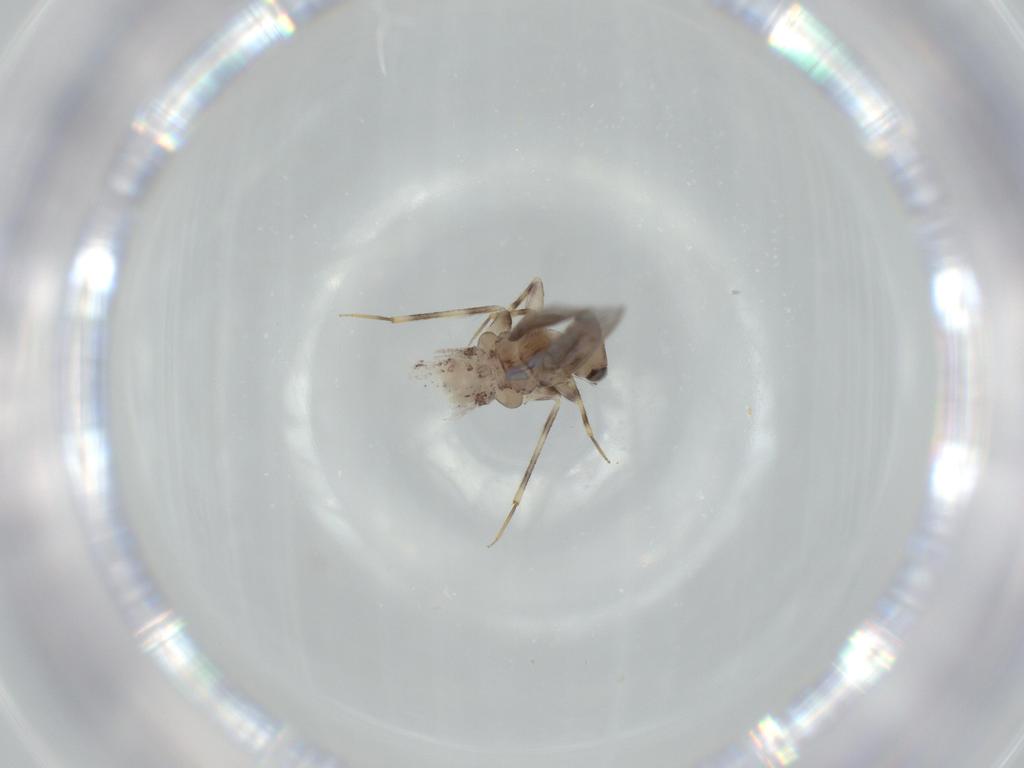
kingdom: Animalia
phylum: Arthropoda
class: Insecta
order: Psocodea
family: Lepidopsocidae
